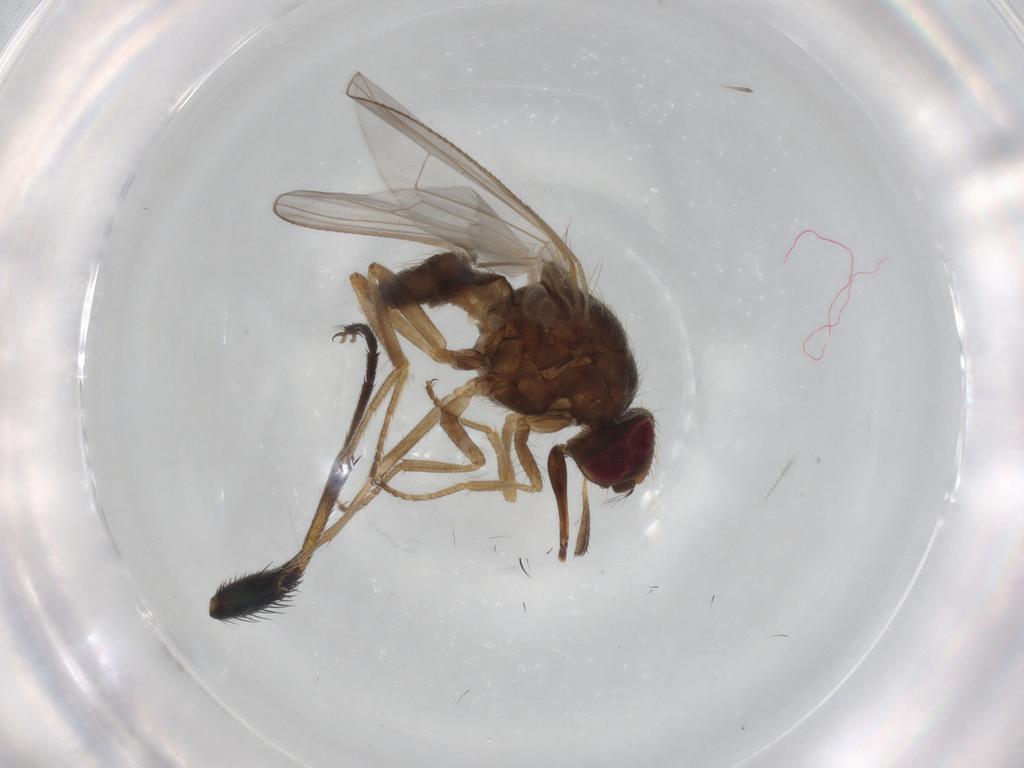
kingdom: Animalia
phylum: Arthropoda
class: Insecta
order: Diptera
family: Calliphoridae
